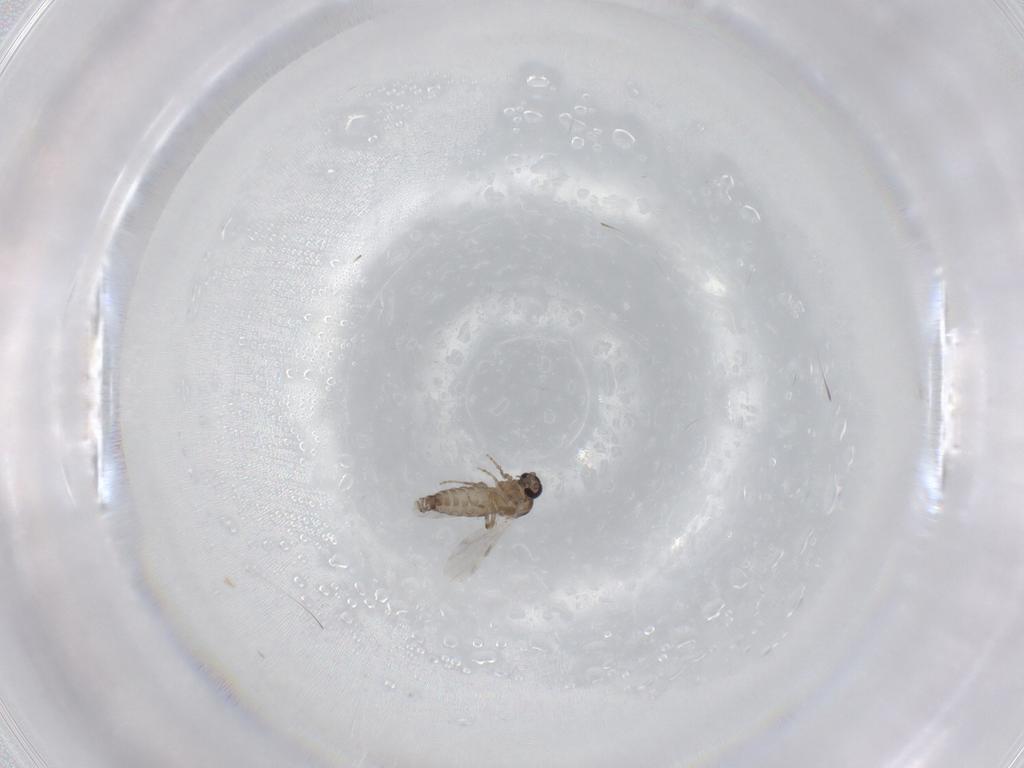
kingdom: Animalia
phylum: Arthropoda
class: Insecta
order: Diptera
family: Ceratopogonidae
